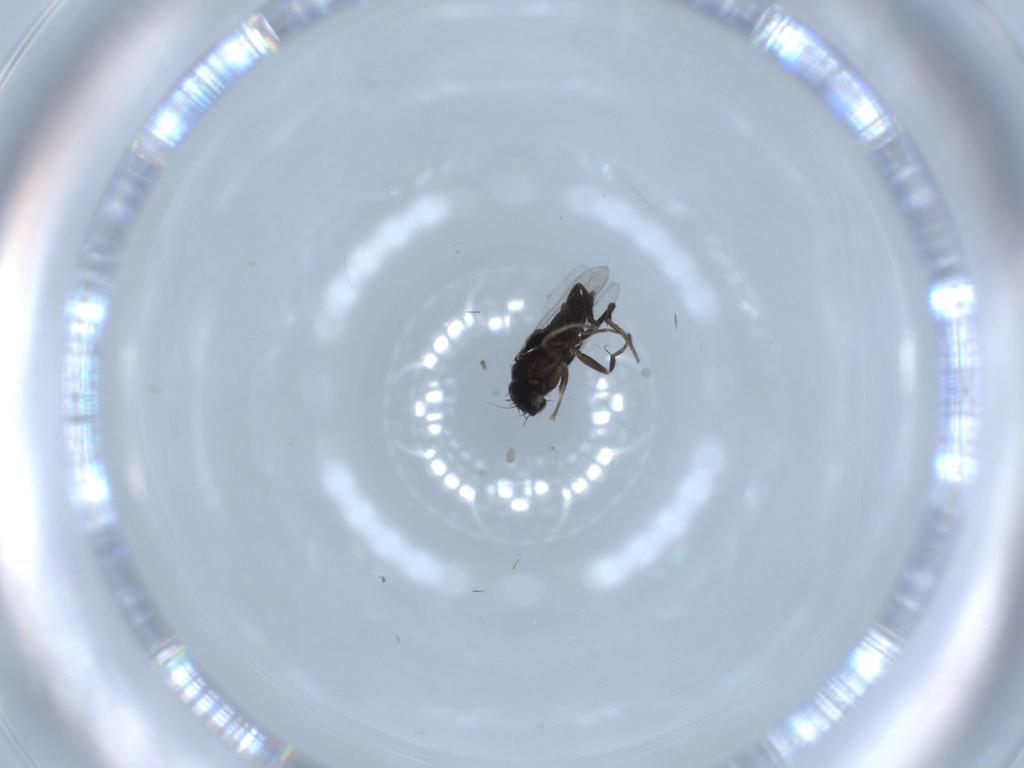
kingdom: Animalia
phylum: Arthropoda
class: Insecta
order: Diptera
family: Phoridae
